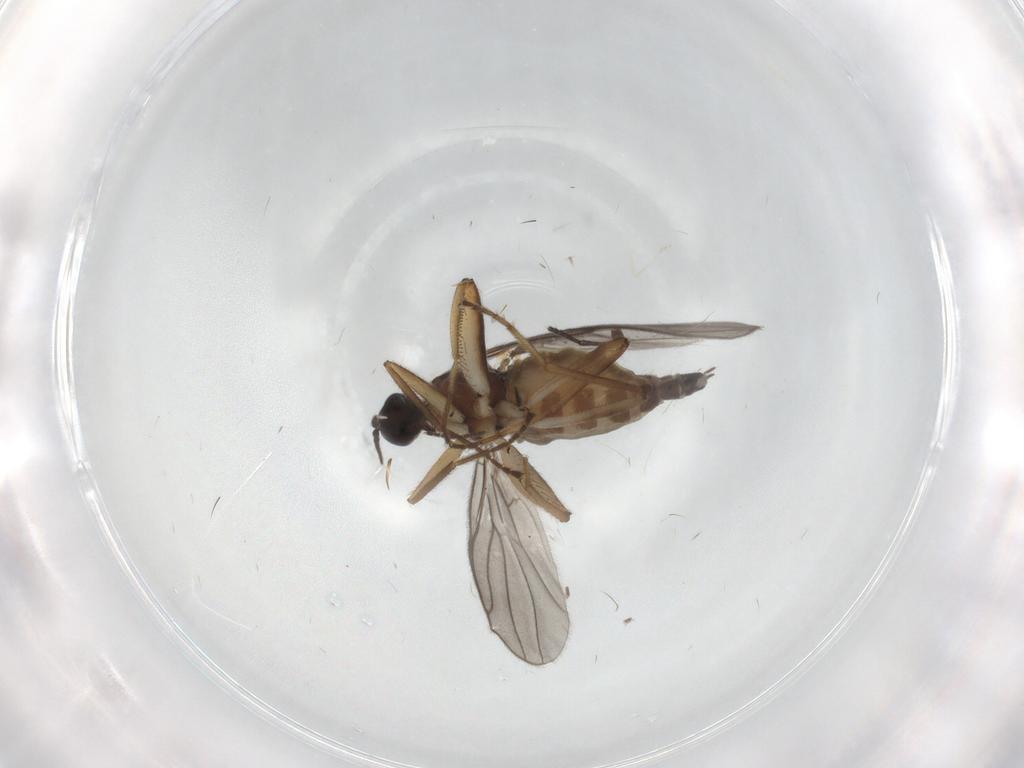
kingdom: Animalia
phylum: Arthropoda
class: Insecta
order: Diptera
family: Hybotidae
